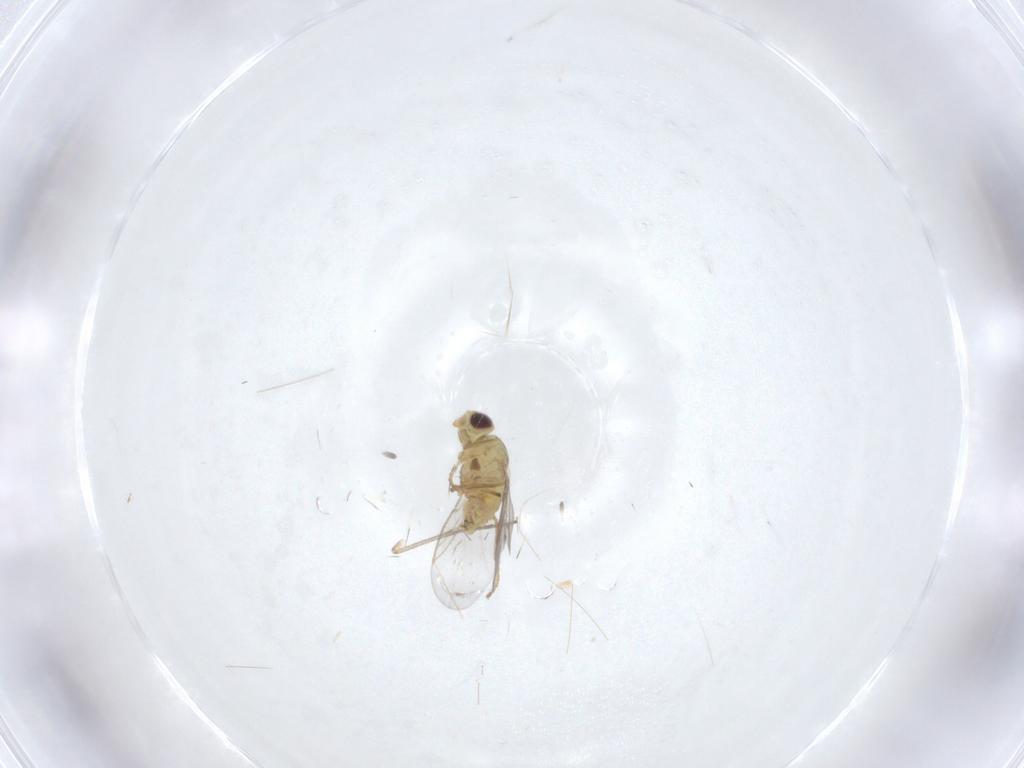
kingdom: Animalia
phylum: Arthropoda
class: Insecta
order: Diptera
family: Agromyzidae
